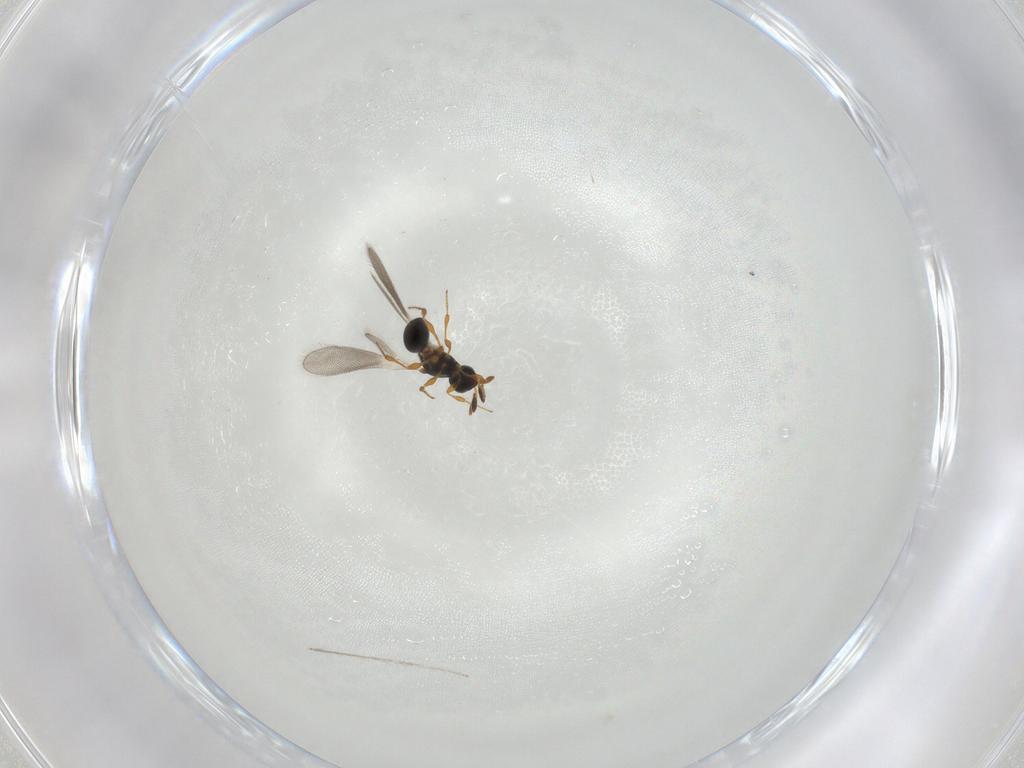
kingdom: Animalia
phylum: Arthropoda
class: Insecta
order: Hymenoptera
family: Platygastridae
